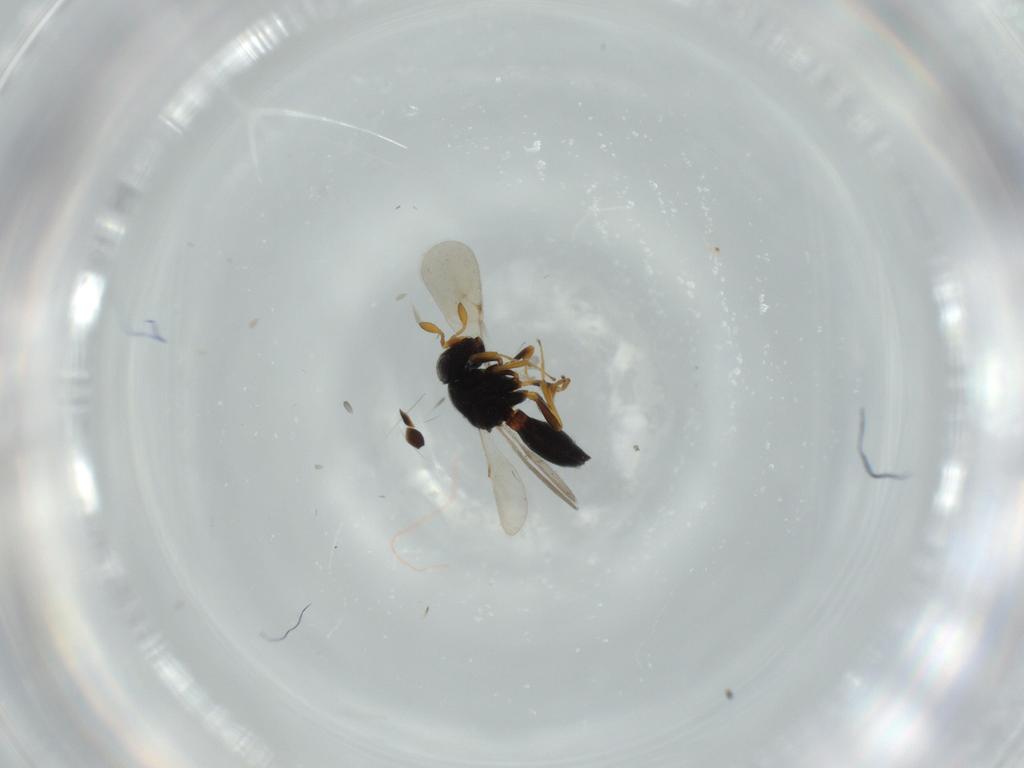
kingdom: Animalia
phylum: Arthropoda
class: Insecta
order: Hymenoptera
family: Scelionidae
